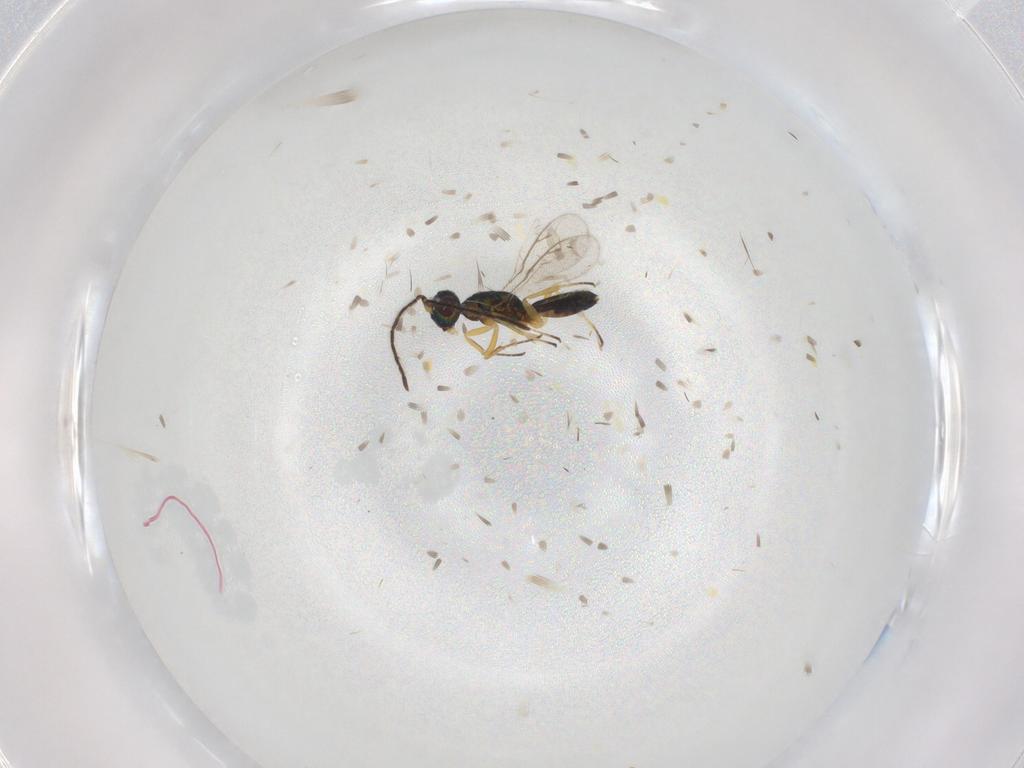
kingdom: Animalia
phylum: Arthropoda
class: Insecta
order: Hymenoptera
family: Eupelmidae
